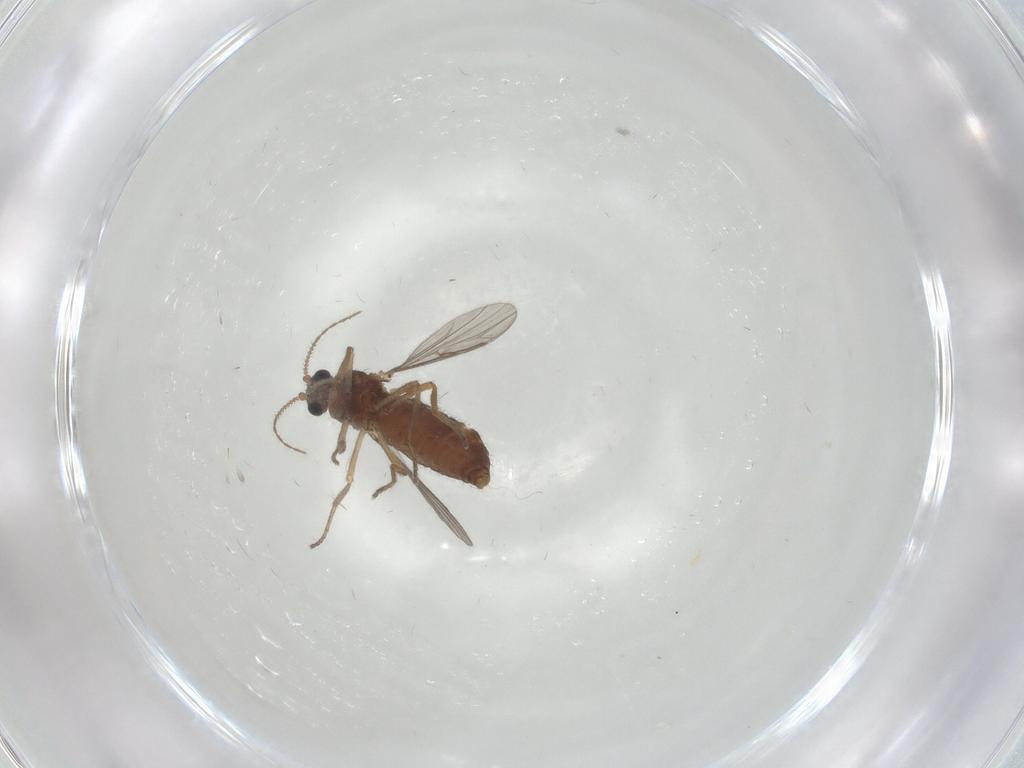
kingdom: Animalia
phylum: Arthropoda
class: Insecta
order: Diptera
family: Ceratopogonidae
